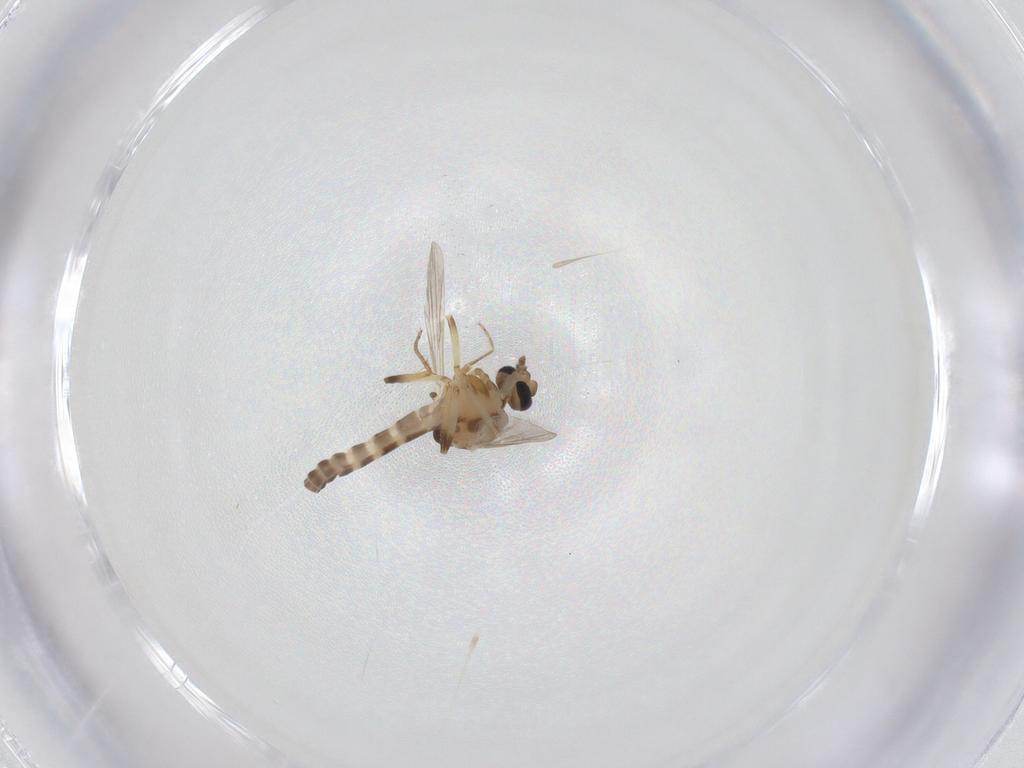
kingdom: Animalia
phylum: Arthropoda
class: Insecta
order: Diptera
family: Ceratopogonidae
